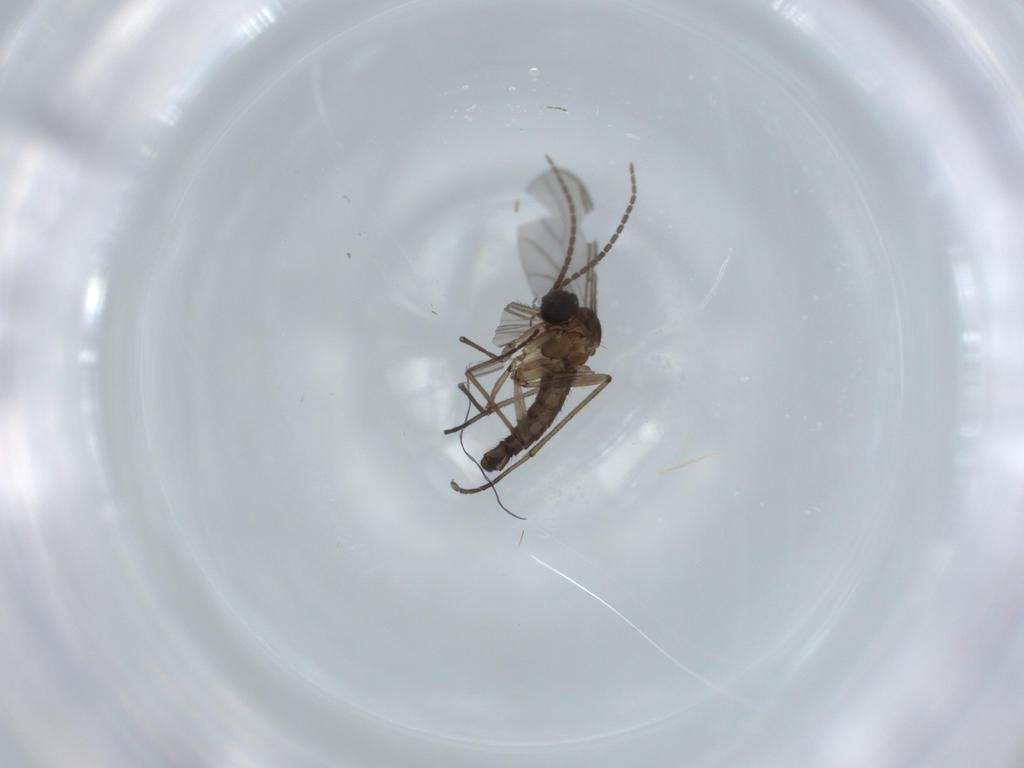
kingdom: Animalia
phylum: Arthropoda
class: Insecta
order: Diptera
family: Sciaridae
